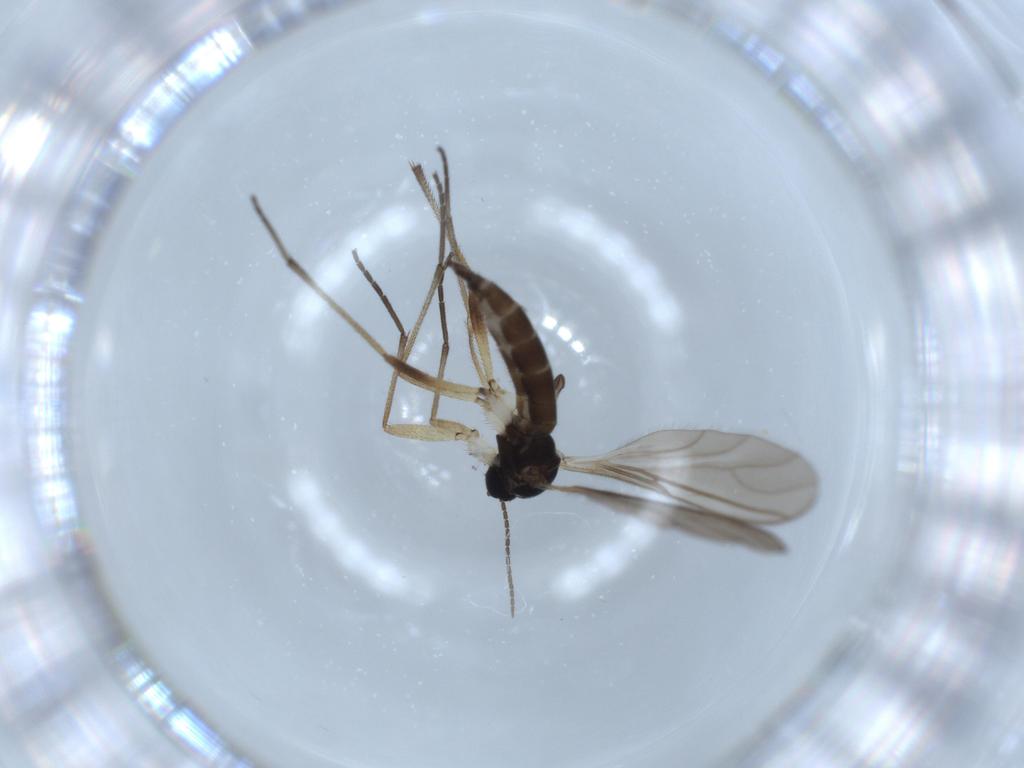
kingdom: Animalia
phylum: Arthropoda
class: Insecta
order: Diptera
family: Sciaridae
